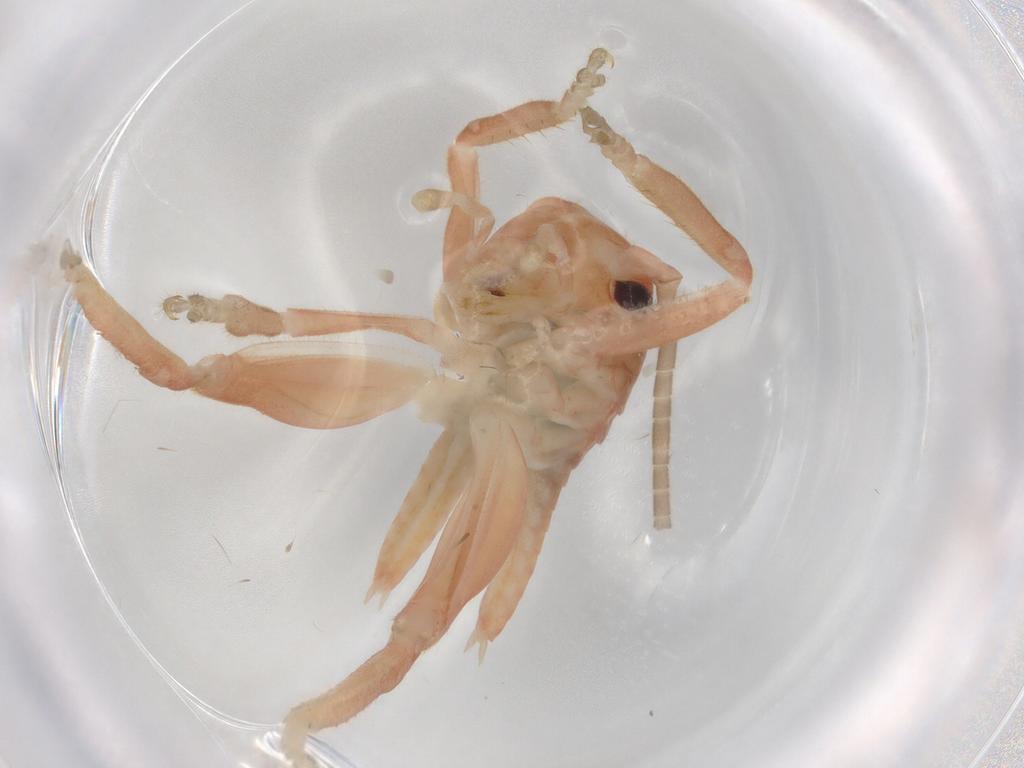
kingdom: Animalia
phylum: Arthropoda
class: Insecta
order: Orthoptera
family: Gryllacrididae
